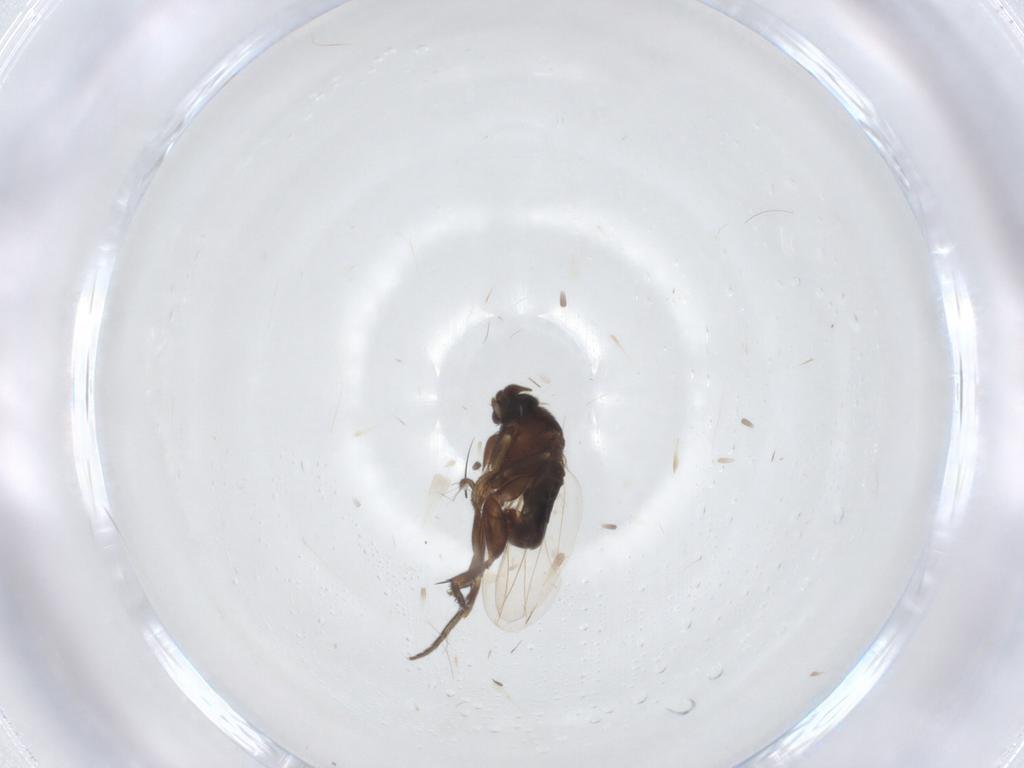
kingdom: Animalia
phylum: Arthropoda
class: Insecta
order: Diptera
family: Phoridae
